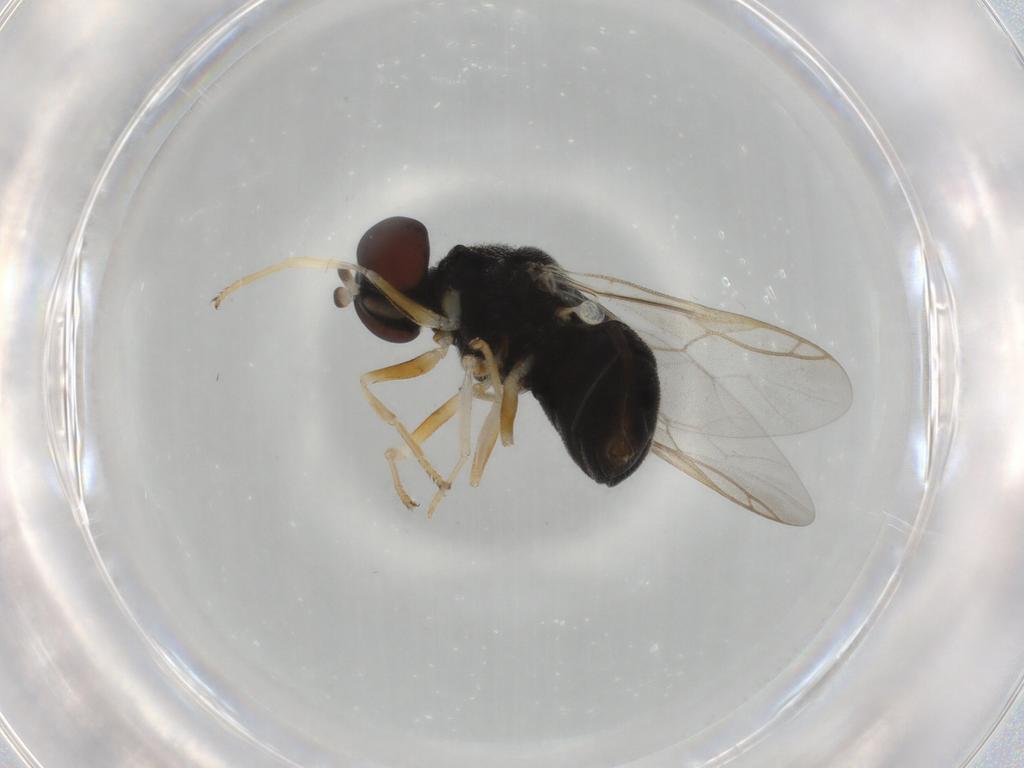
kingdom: Animalia
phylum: Arthropoda
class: Insecta
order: Diptera
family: Stratiomyidae
